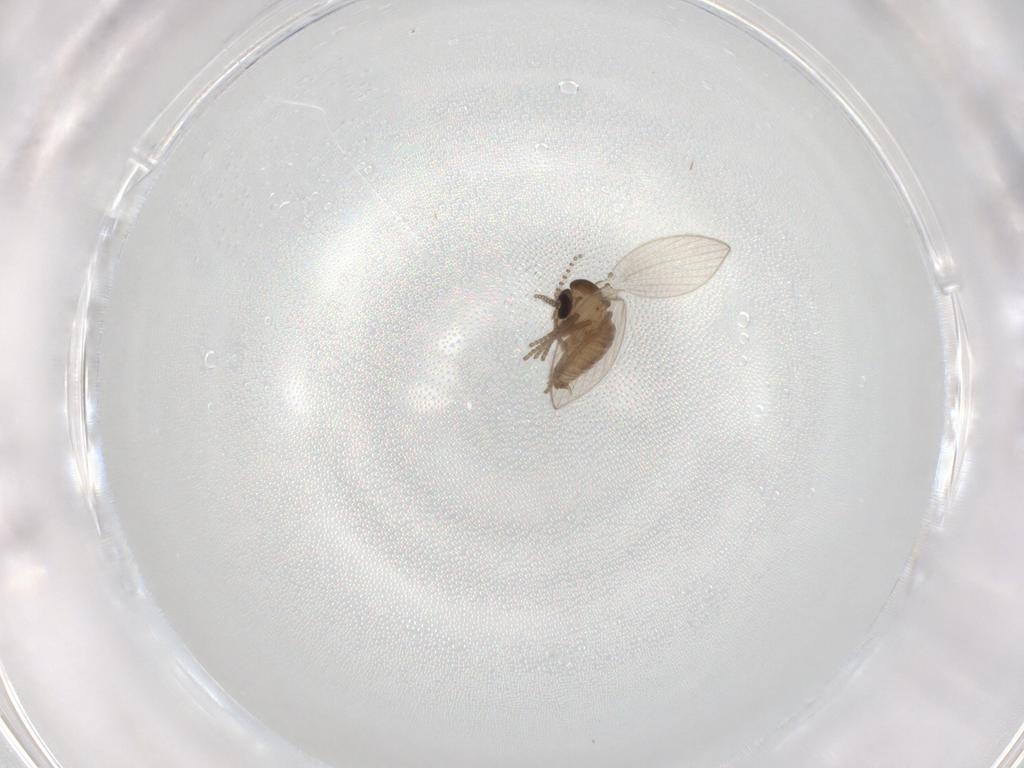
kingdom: Animalia
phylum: Arthropoda
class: Insecta
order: Diptera
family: Psychodidae
